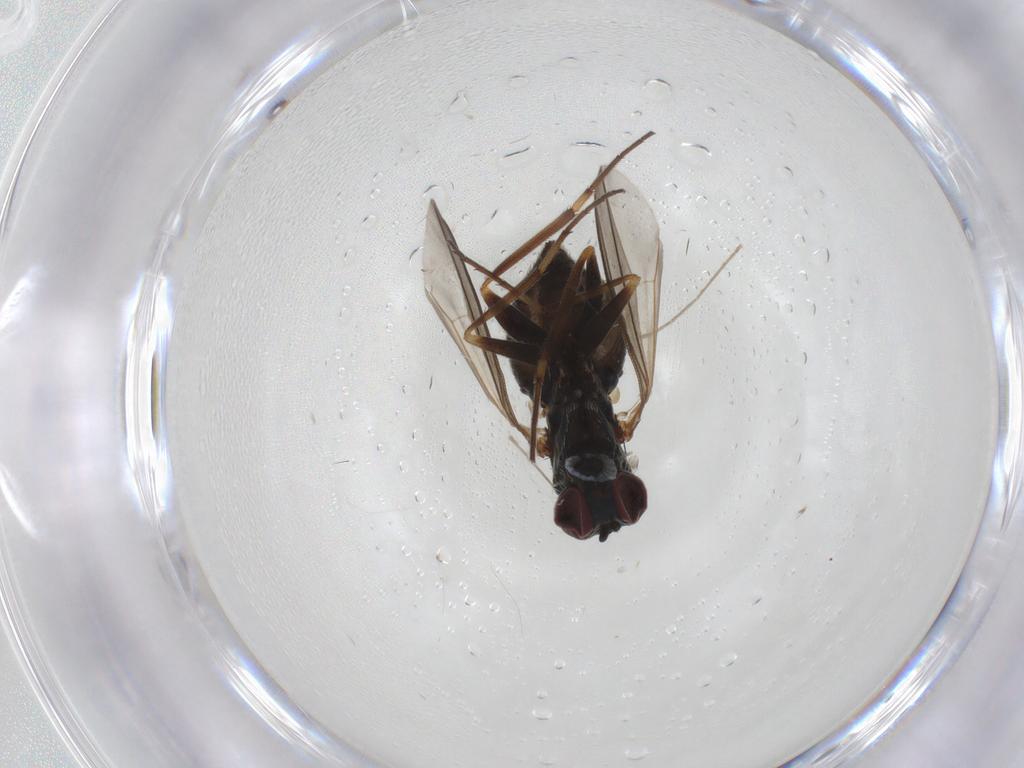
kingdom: Animalia
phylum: Arthropoda
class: Insecta
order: Diptera
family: Dolichopodidae
